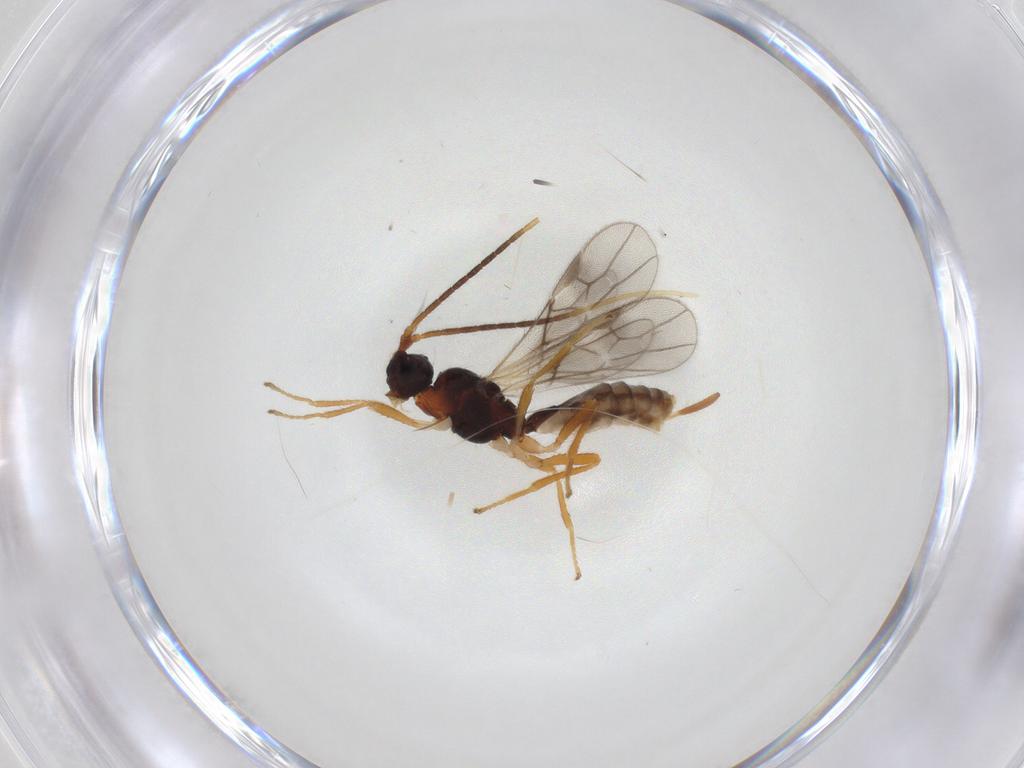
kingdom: Animalia
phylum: Arthropoda
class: Insecta
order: Hymenoptera
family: Braconidae
